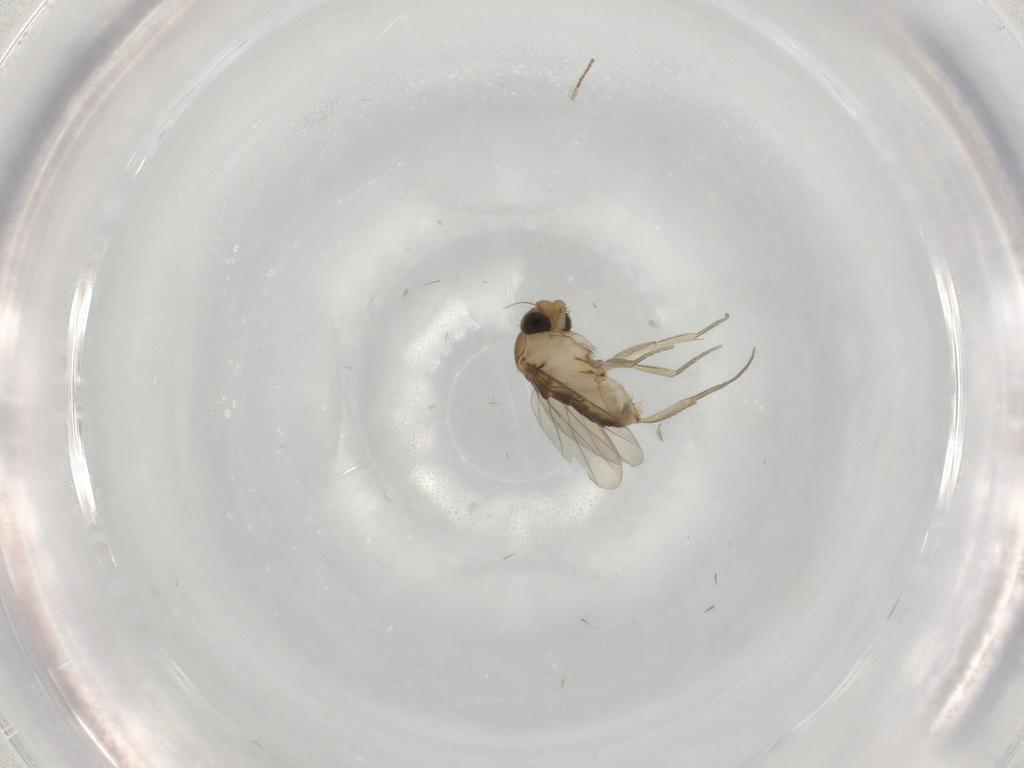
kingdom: Animalia
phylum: Arthropoda
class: Insecta
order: Diptera
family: Phoridae
